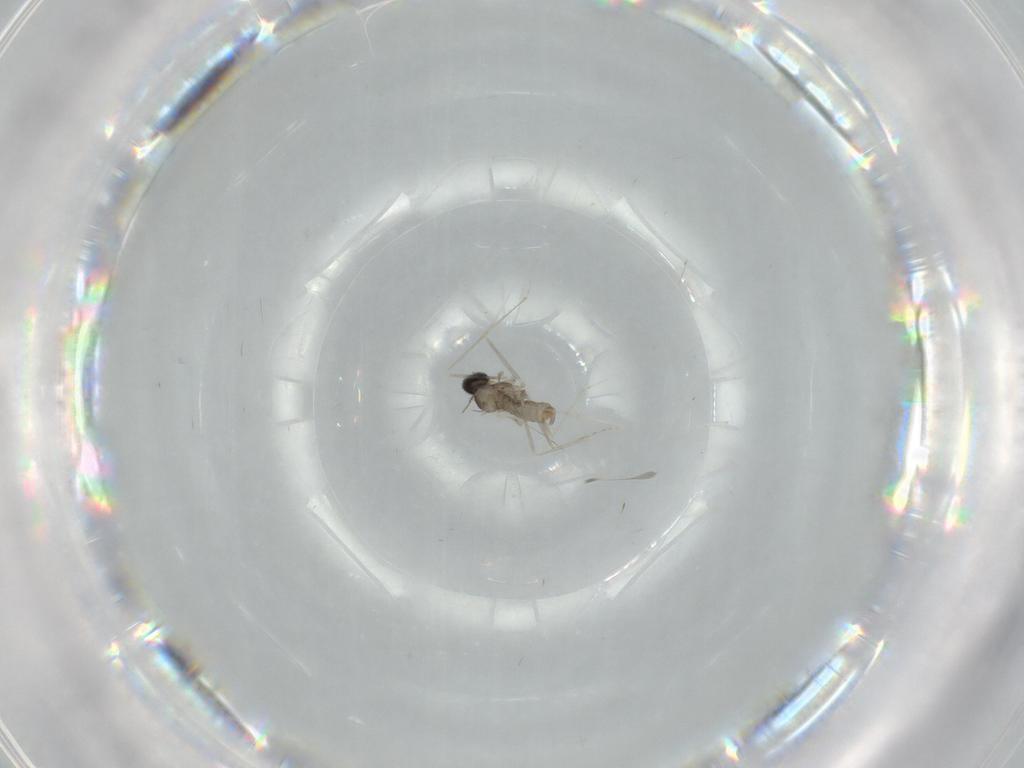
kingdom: Animalia
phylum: Arthropoda
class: Insecta
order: Diptera
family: Cecidomyiidae
